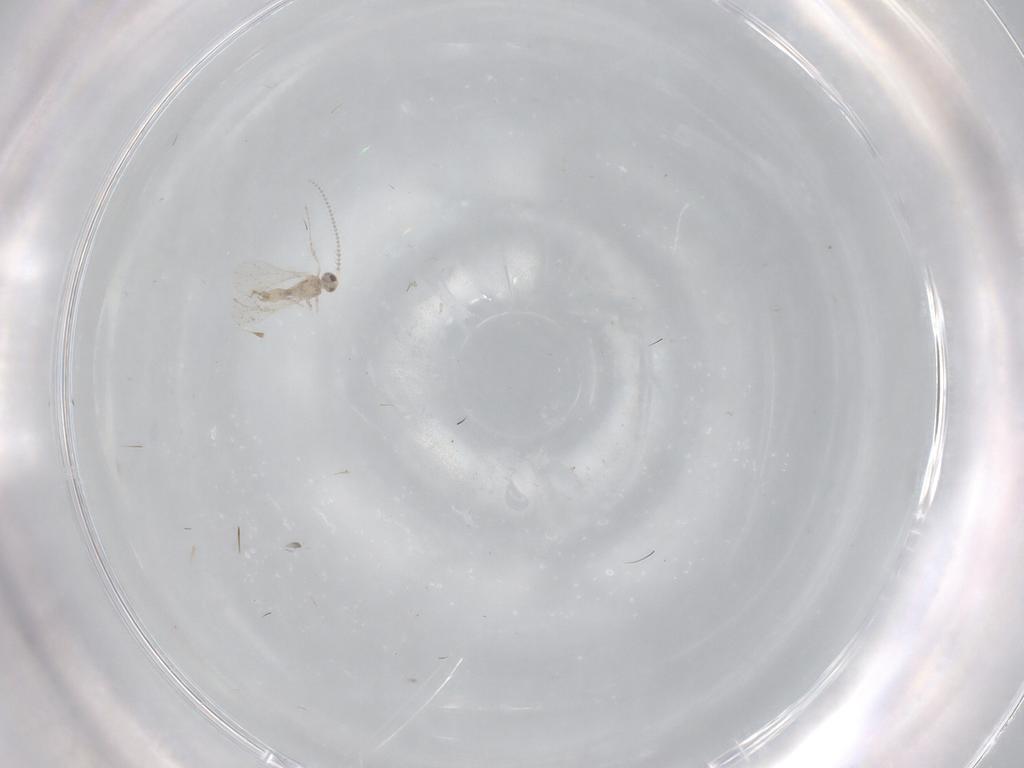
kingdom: Animalia
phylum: Arthropoda
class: Insecta
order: Diptera
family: Cecidomyiidae
